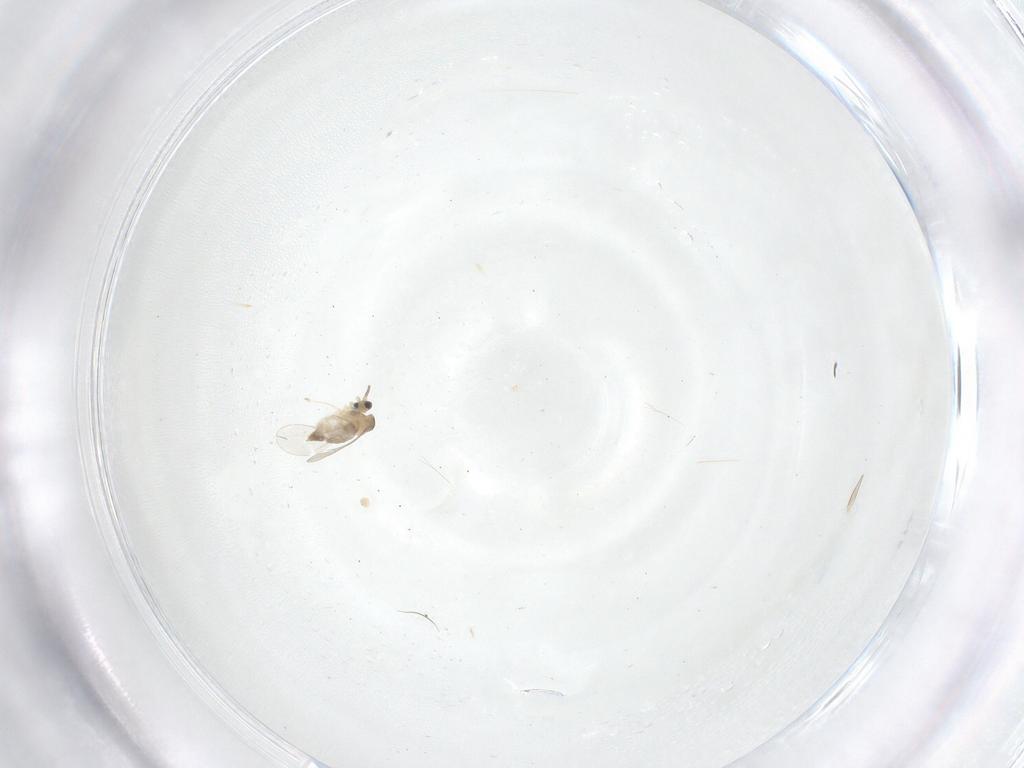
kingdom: Animalia
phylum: Arthropoda
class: Insecta
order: Diptera
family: Cecidomyiidae
